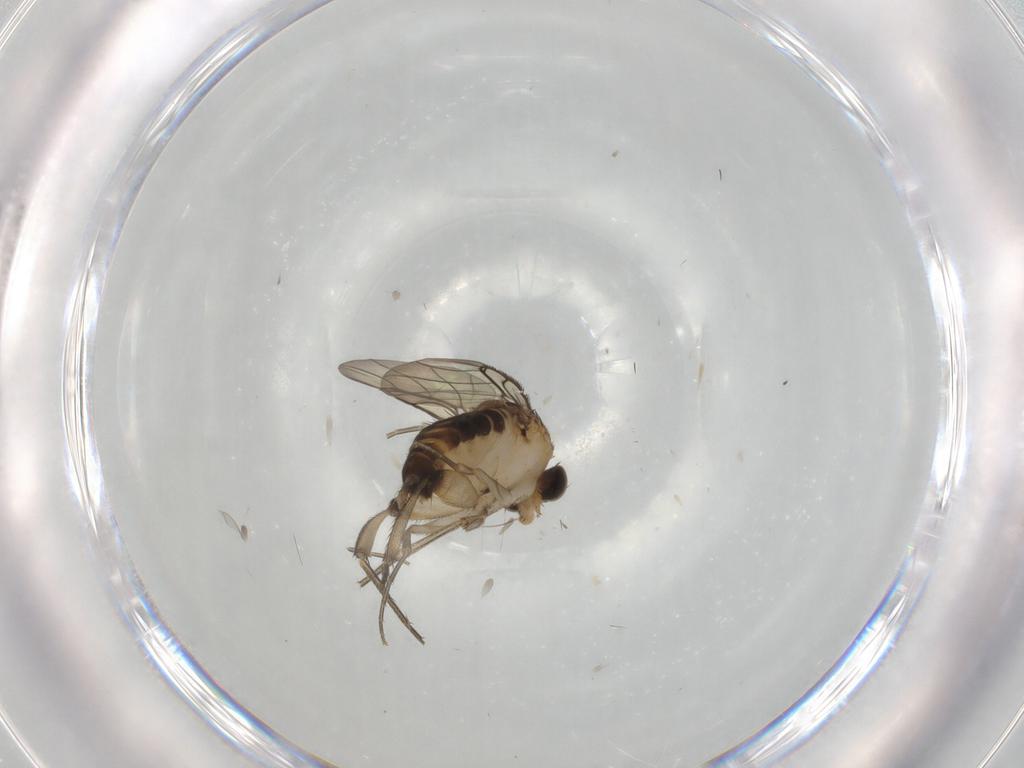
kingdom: Animalia
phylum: Arthropoda
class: Insecta
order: Diptera
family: Phoridae
